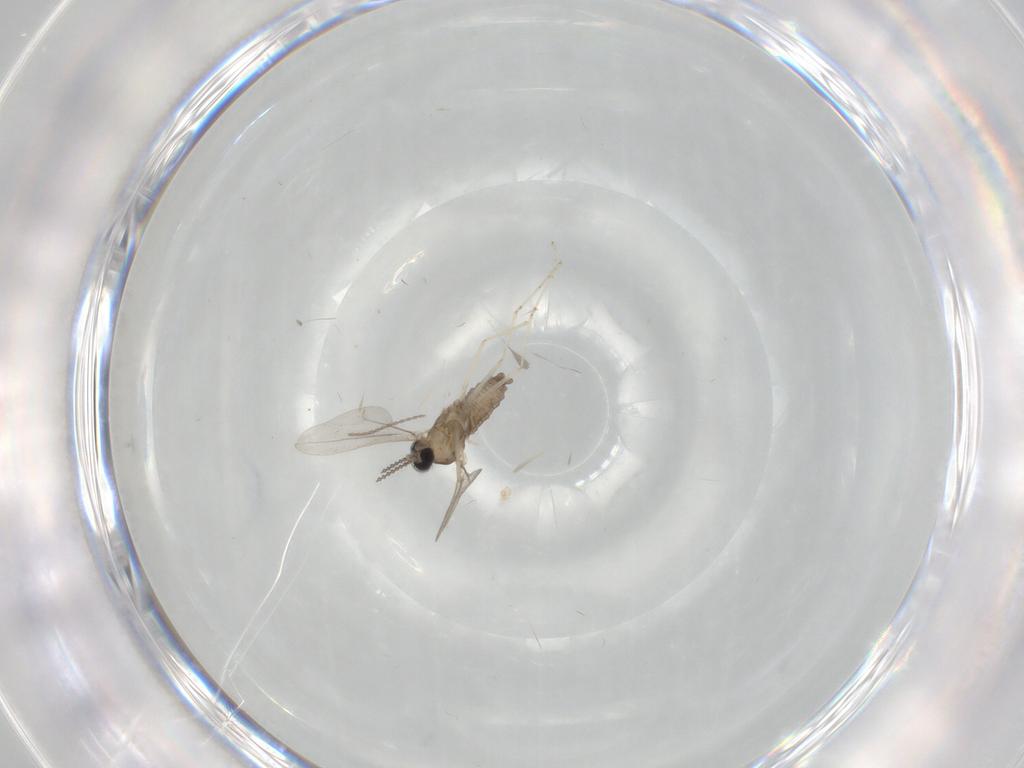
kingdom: Animalia
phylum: Arthropoda
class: Insecta
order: Diptera
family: Cecidomyiidae
